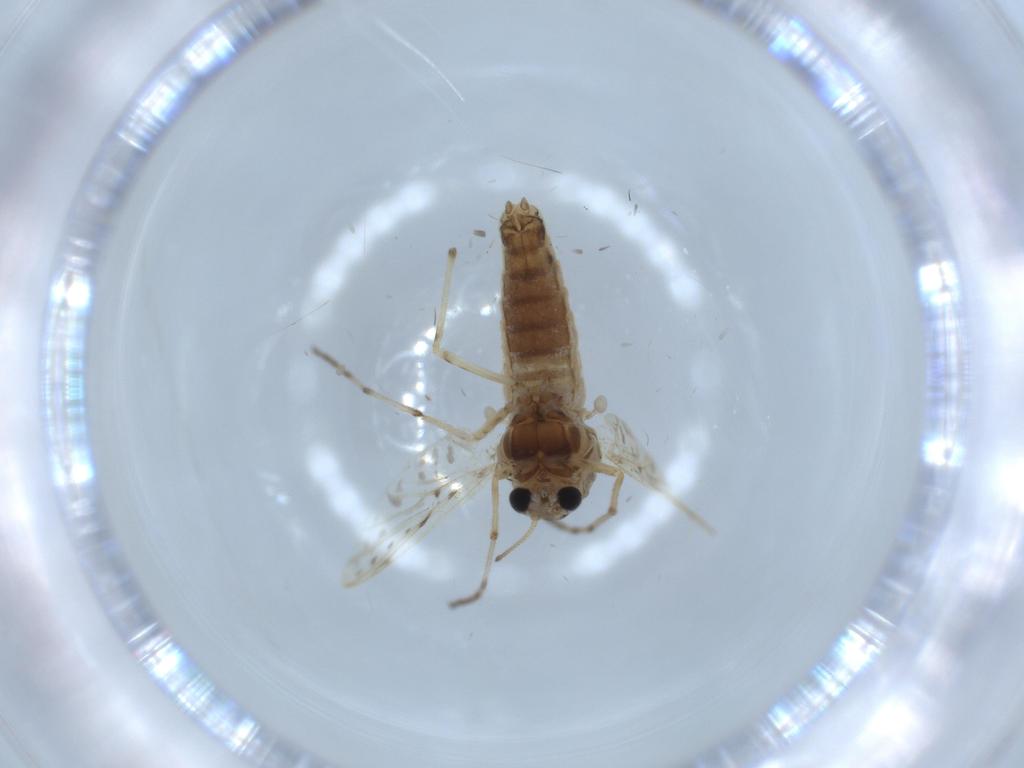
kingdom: Animalia
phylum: Arthropoda
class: Insecta
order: Diptera
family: Chironomidae
